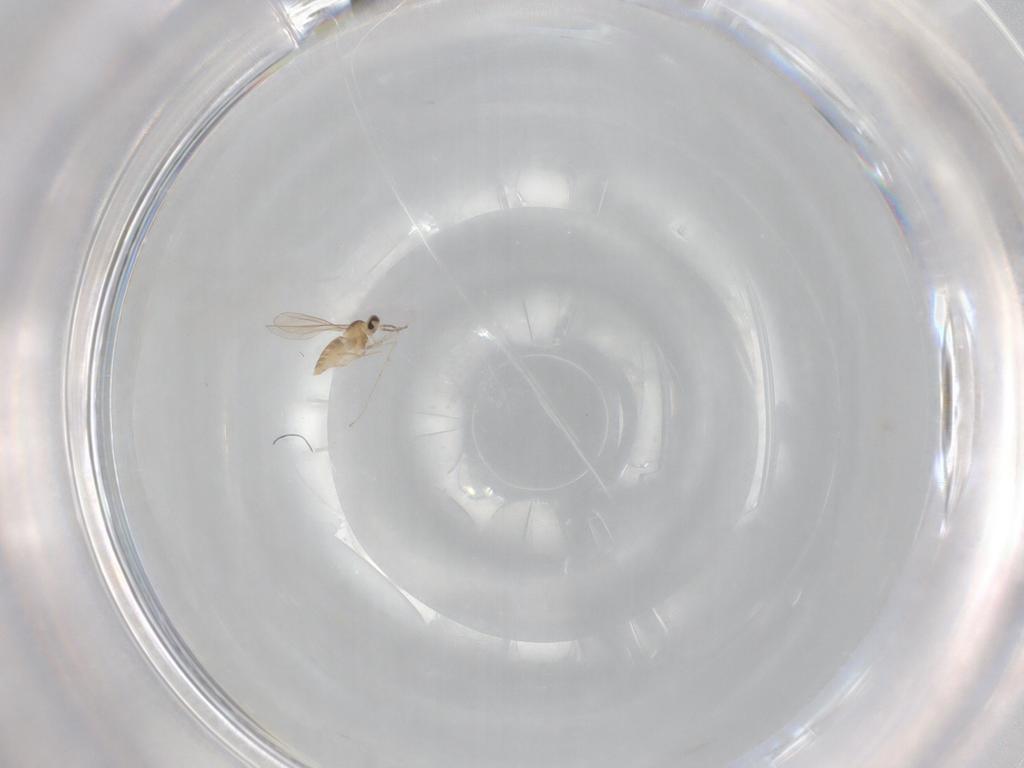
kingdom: Animalia
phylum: Arthropoda
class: Insecta
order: Diptera
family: Cecidomyiidae
